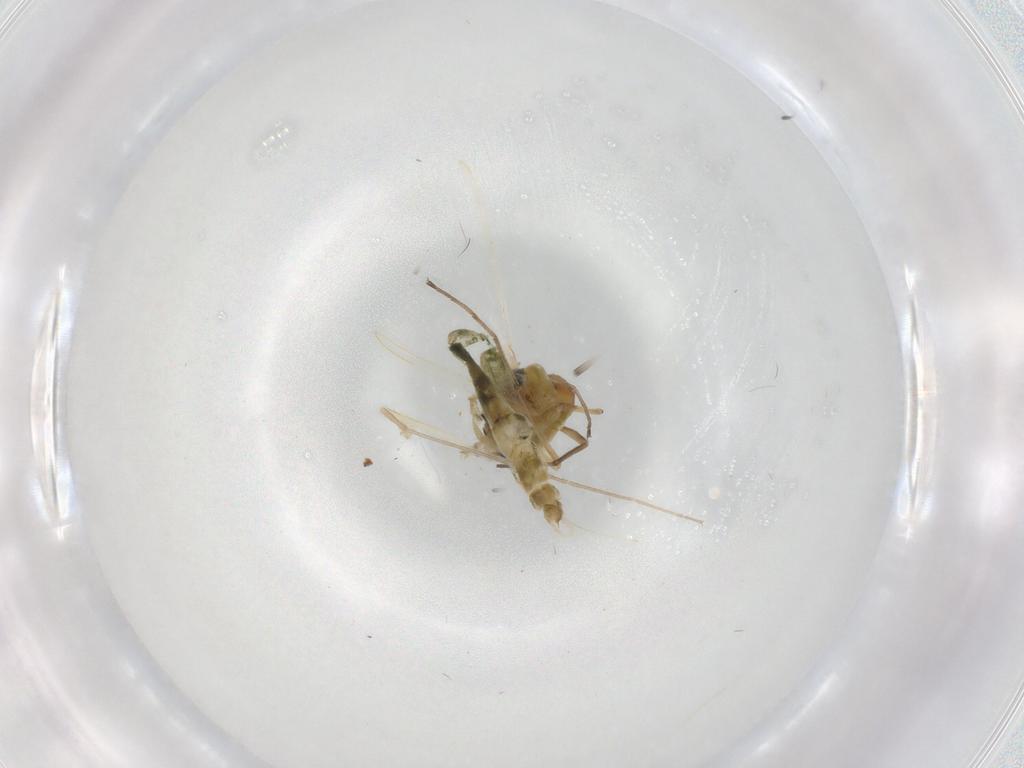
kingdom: Animalia
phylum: Arthropoda
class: Insecta
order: Diptera
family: Chironomidae
